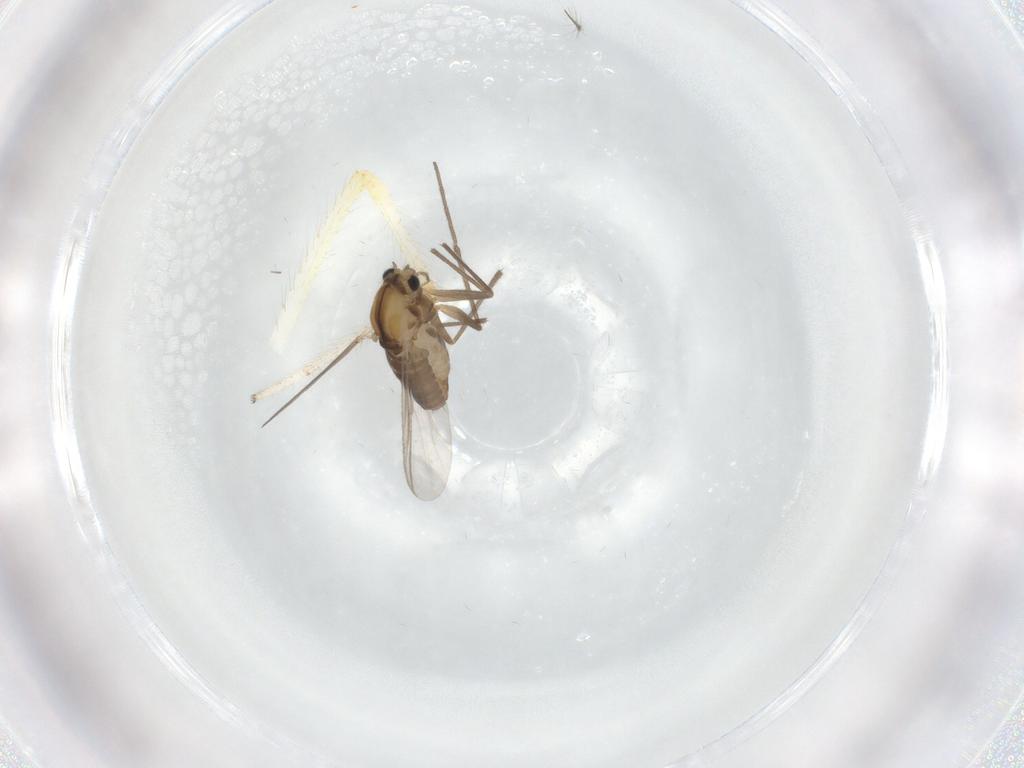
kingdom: Animalia
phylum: Arthropoda
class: Insecta
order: Diptera
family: Chironomidae
